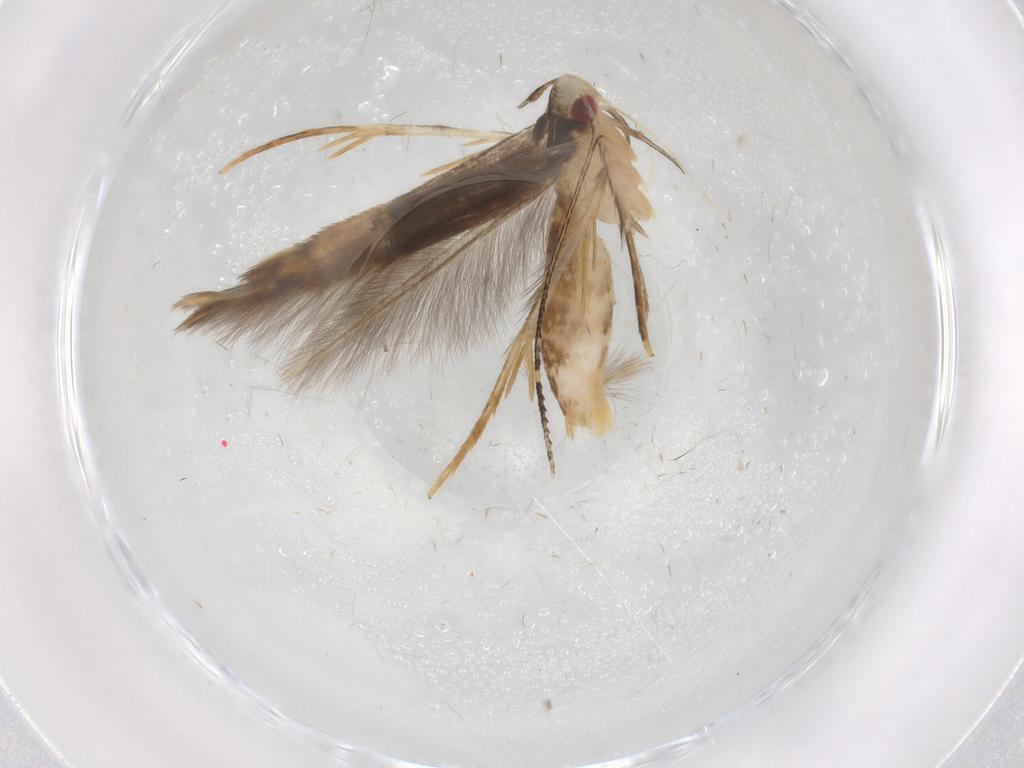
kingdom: Animalia
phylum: Arthropoda
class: Insecta
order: Lepidoptera
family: Gelechiidae
